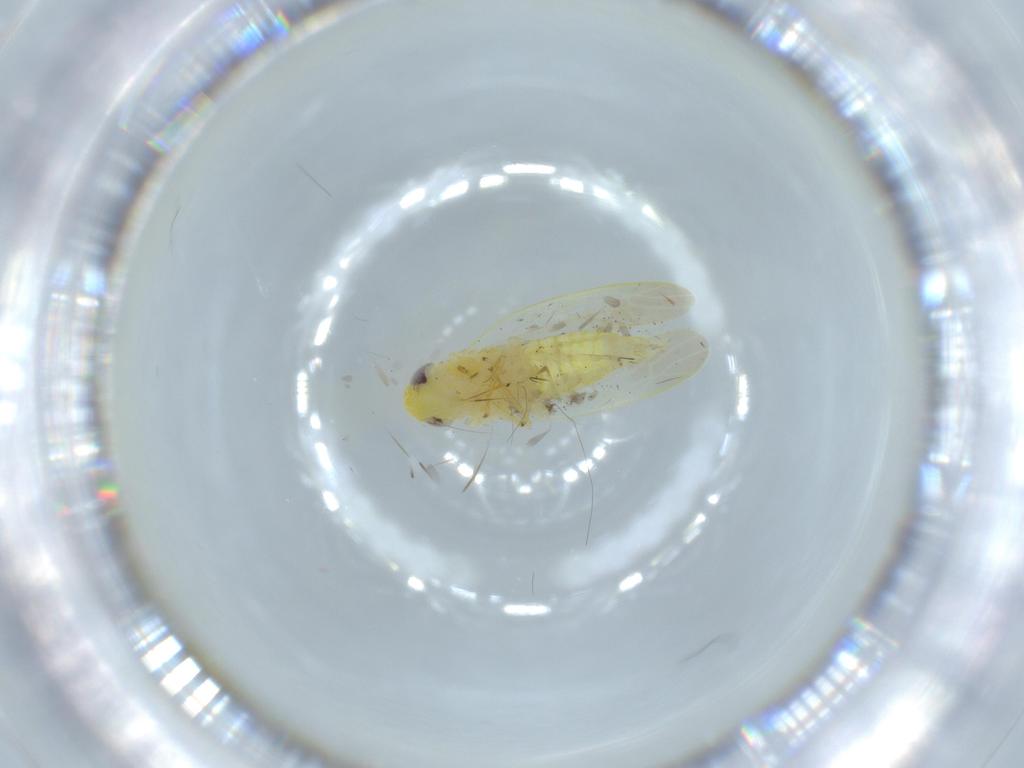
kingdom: Animalia
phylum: Arthropoda
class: Insecta
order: Hemiptera
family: Cicadellidae
